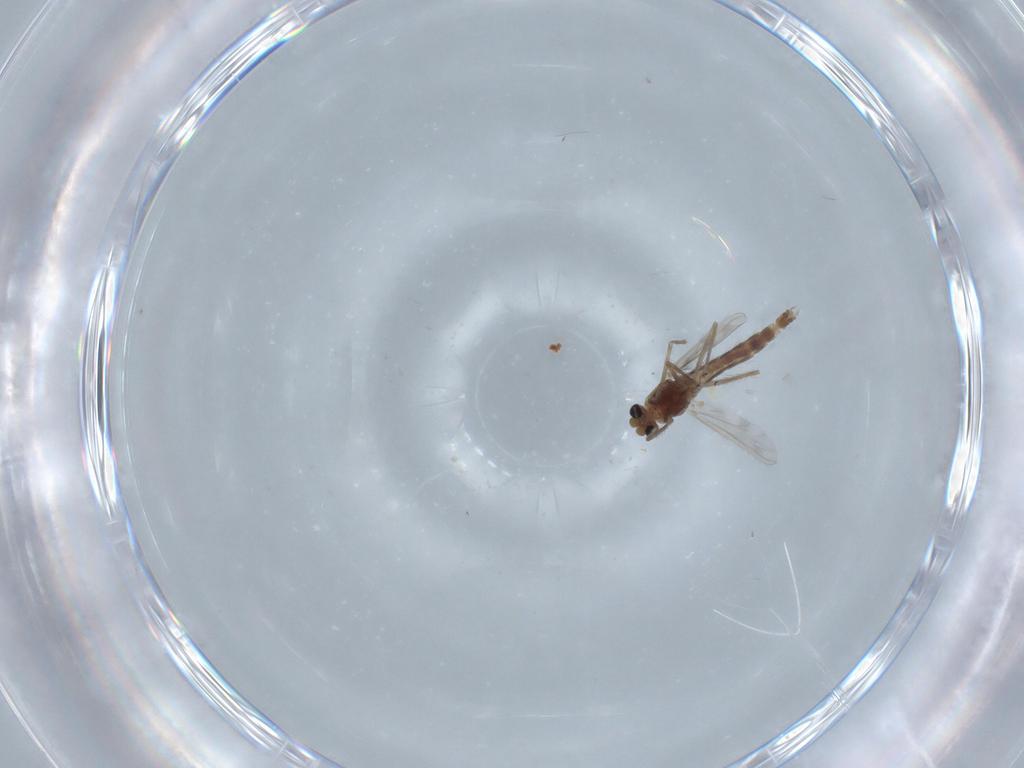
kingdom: Animalia
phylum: Arthropoda
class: Insecta
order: Diptera
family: Chironomidae
